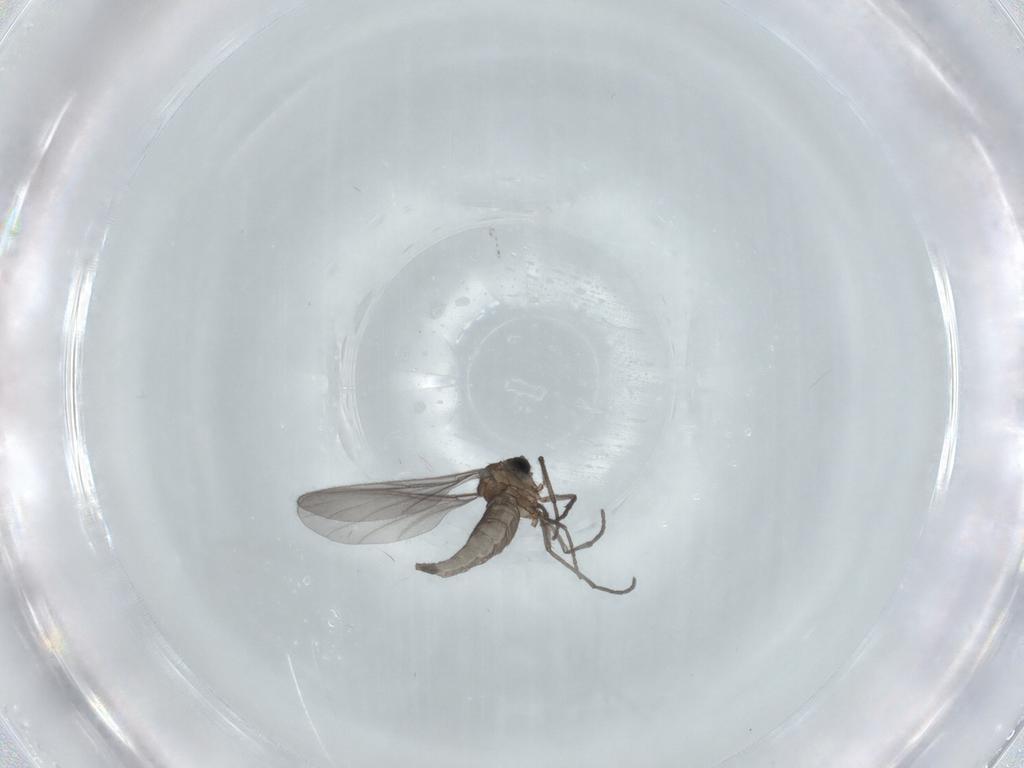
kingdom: Animalia
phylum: Arthropoda
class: Insecta
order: Diptera
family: Sciaridae
